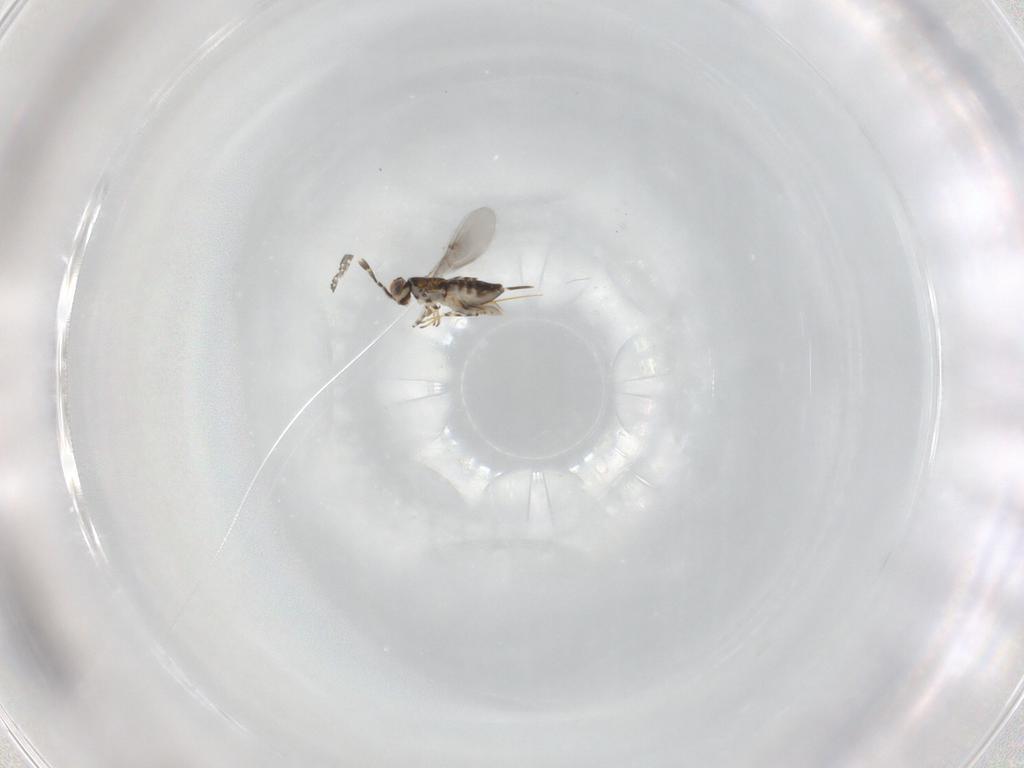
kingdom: Animalia
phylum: Arthropoda
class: Insecta
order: Hymenoptera
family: Encyrtidae
